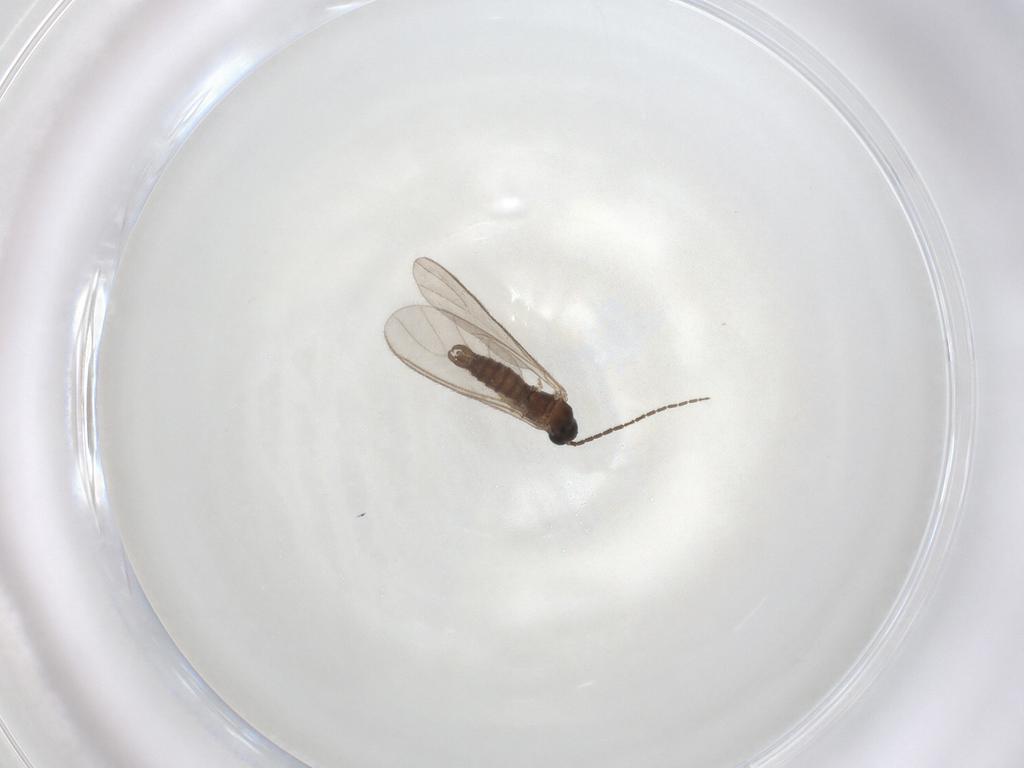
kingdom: Animalia
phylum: Arthropoda
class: Insecta
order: Diptera
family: Sciaridae
